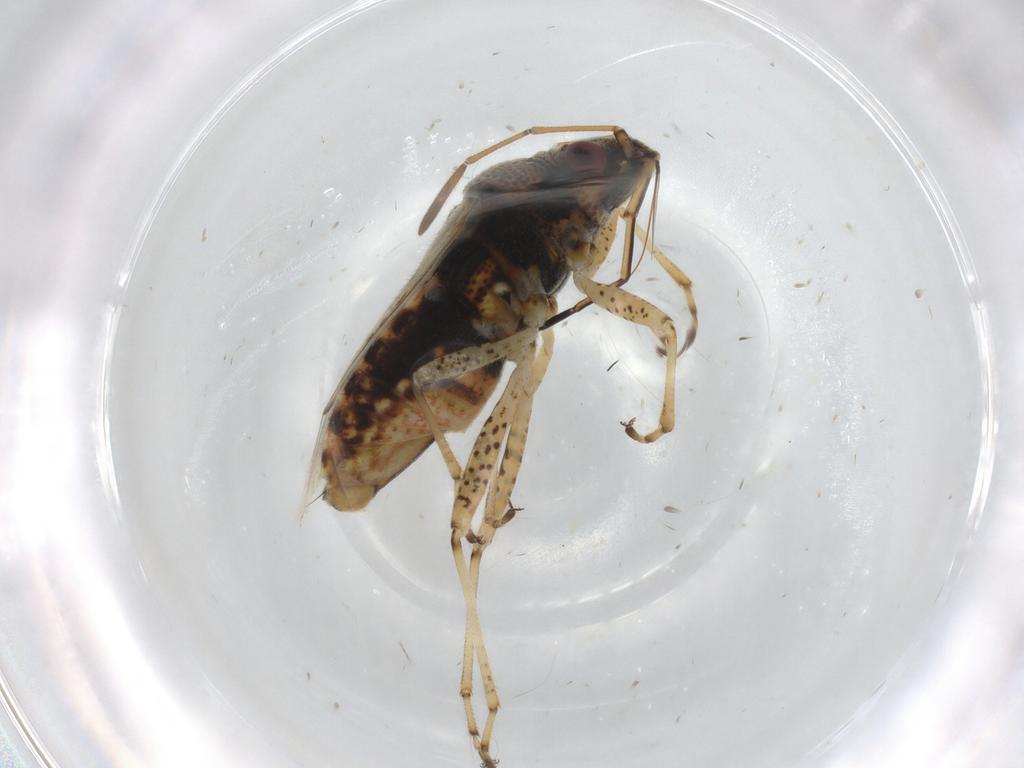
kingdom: Animalia
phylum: Arthropoda
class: Insecta
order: Hemiptera
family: Lygaeidae
